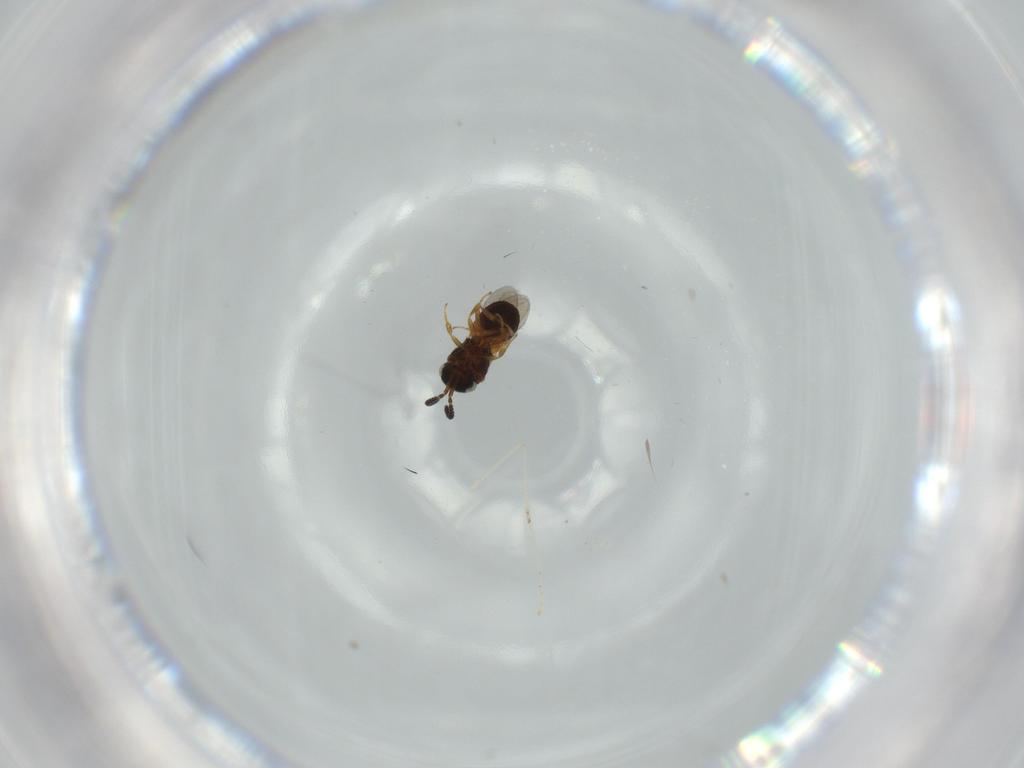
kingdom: Animalia
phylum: Arthropoda
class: Insecta
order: Hymenoptera
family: Scelionidae
